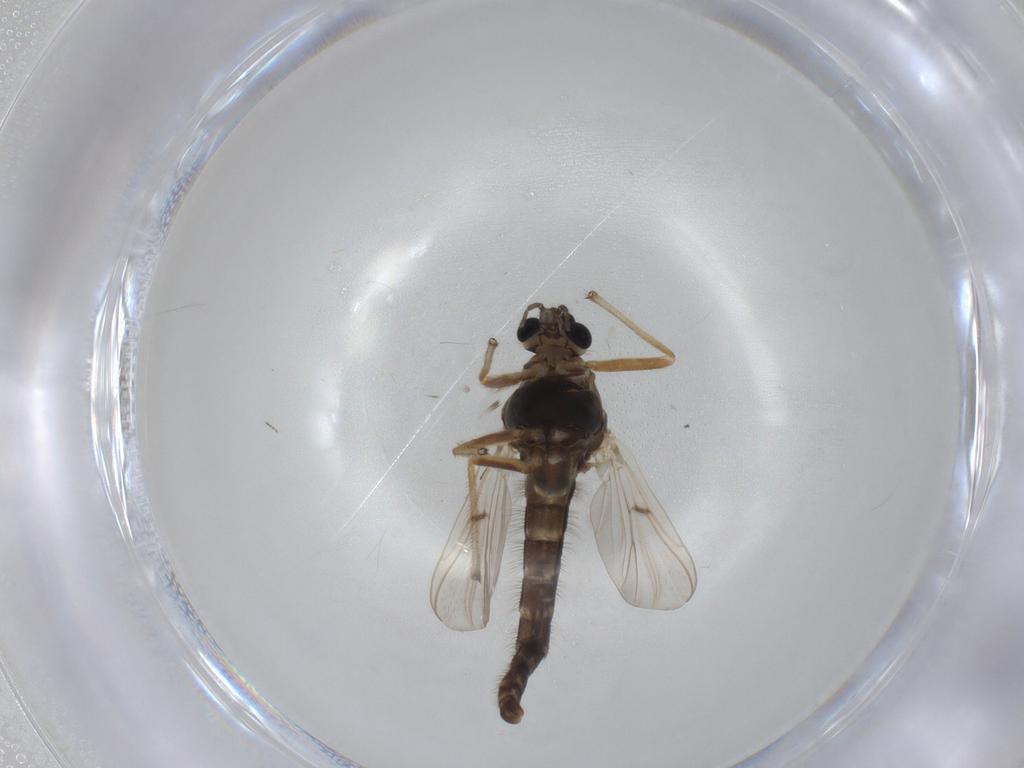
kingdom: Animalia
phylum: Arthropoda
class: Insecta
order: Diptera
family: Chironomidae
